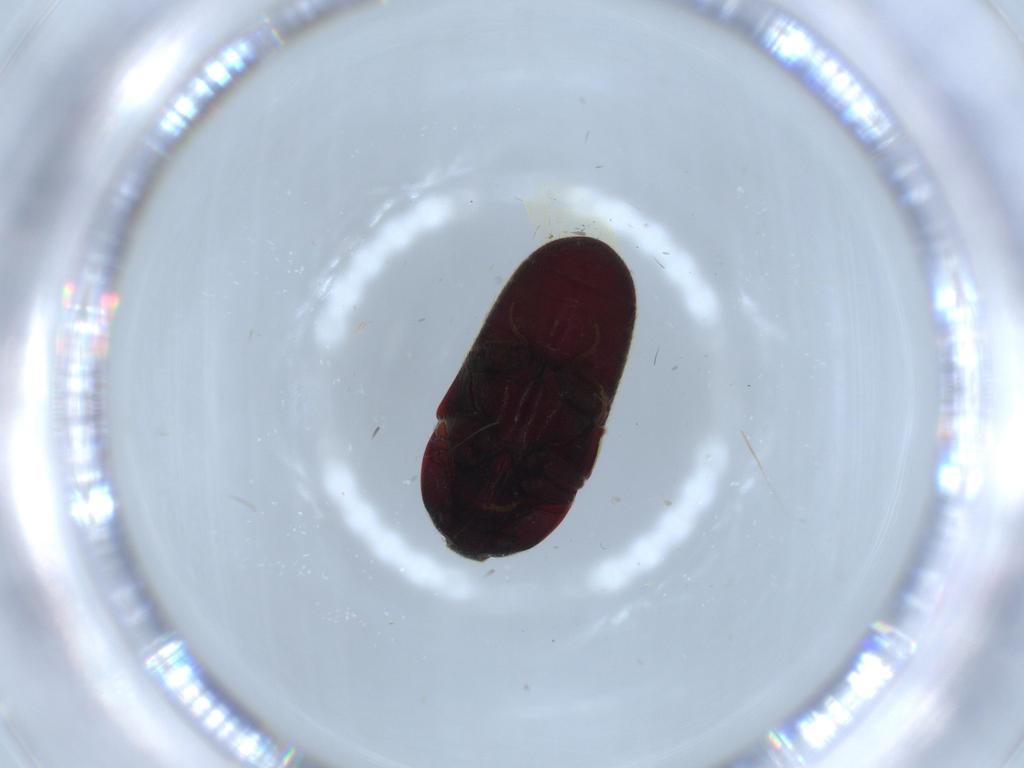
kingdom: Animalia
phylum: Arthropoda
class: Insecta
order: Coleoptera
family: Throscidae
